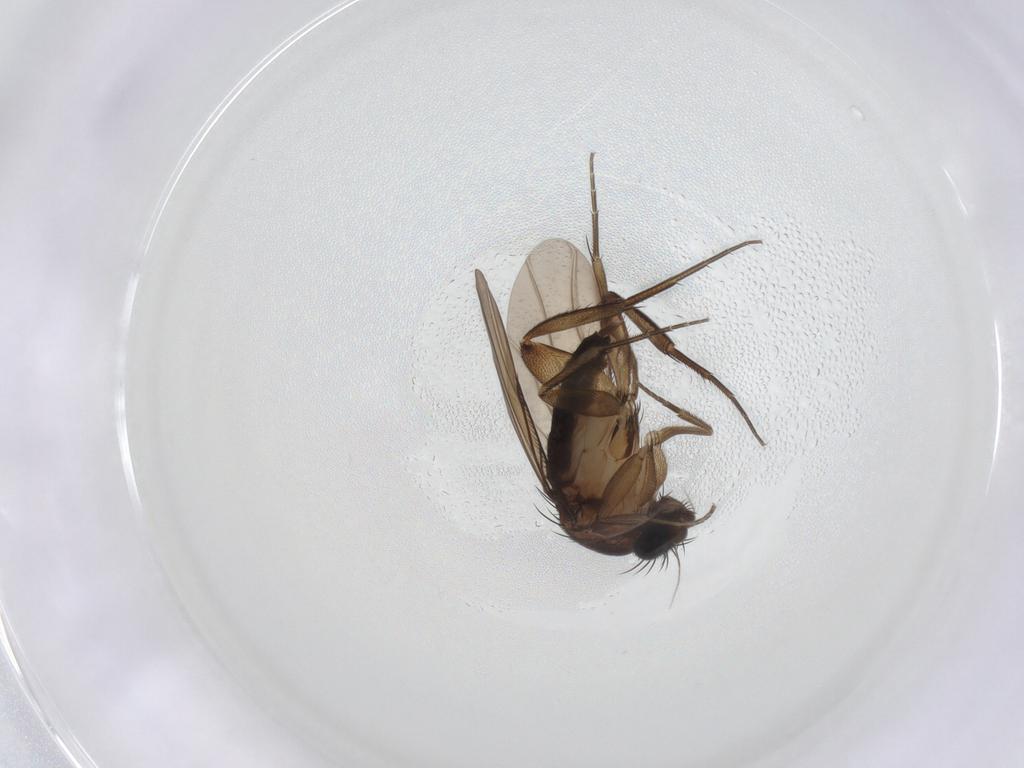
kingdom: Animalia
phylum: Arthropoda
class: Insecta
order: Diptera
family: Phoridae
